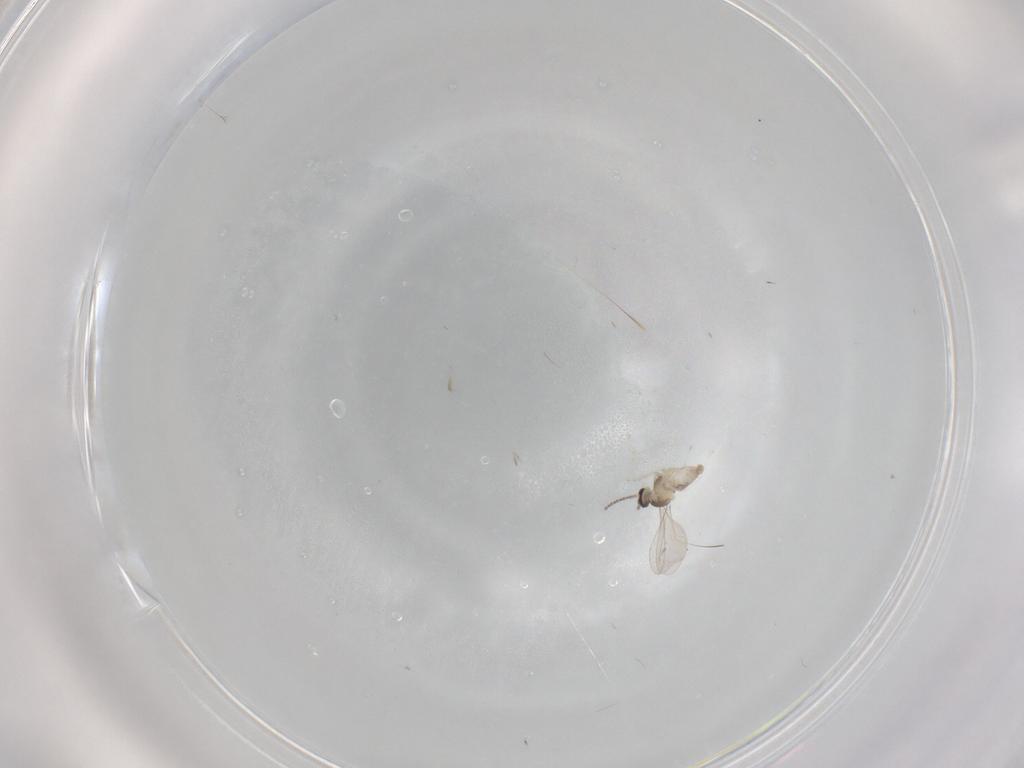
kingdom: Animalia
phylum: Arthropoda
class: Insecta
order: Diptera
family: Cecidomyiidae
